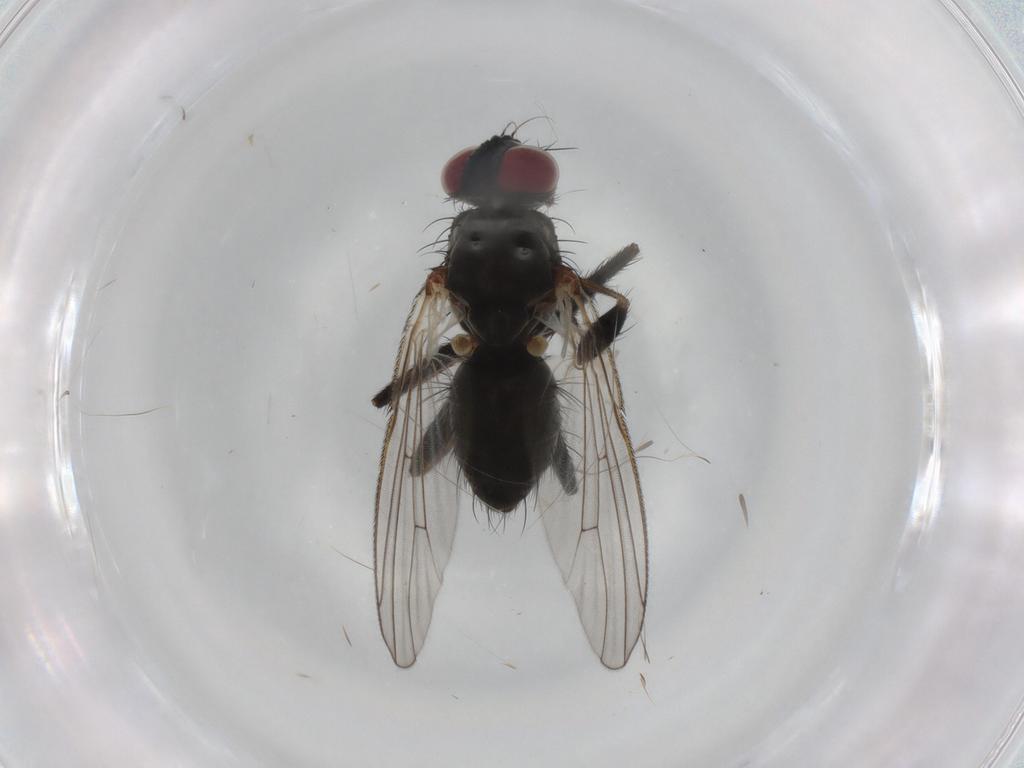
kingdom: Animalia
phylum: Arthropoda
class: Insecta
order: Diptera
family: Phoridae
